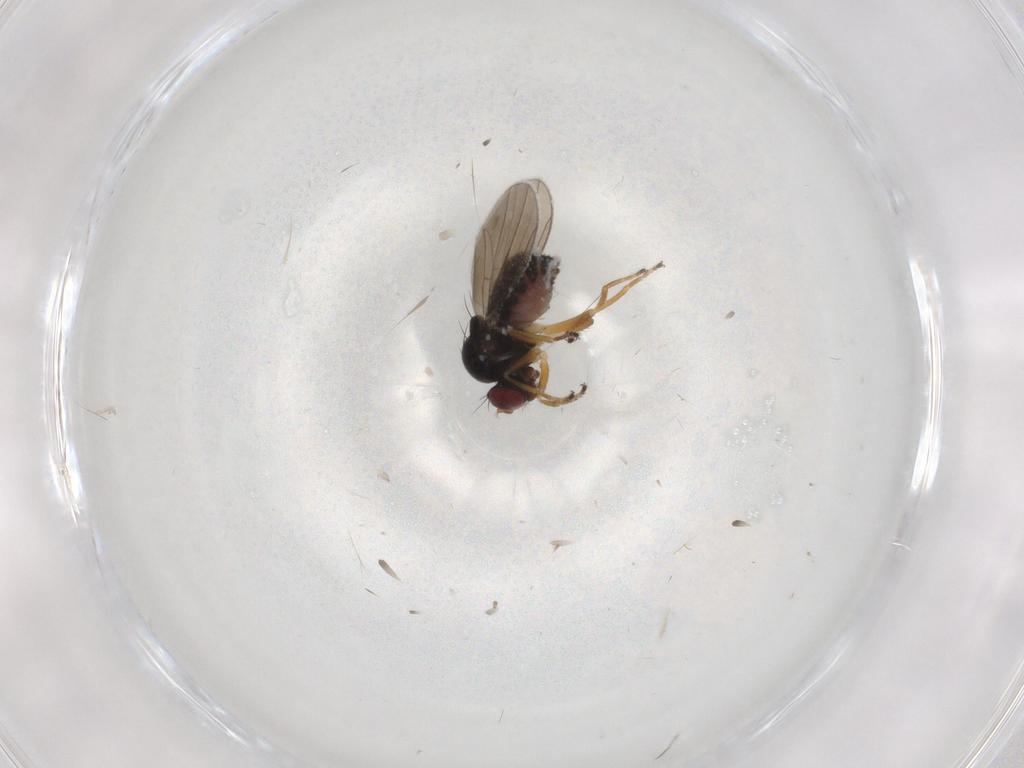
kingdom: Animalia
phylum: Arthropoda
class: Insecta
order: Diptera
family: Ephydridae
